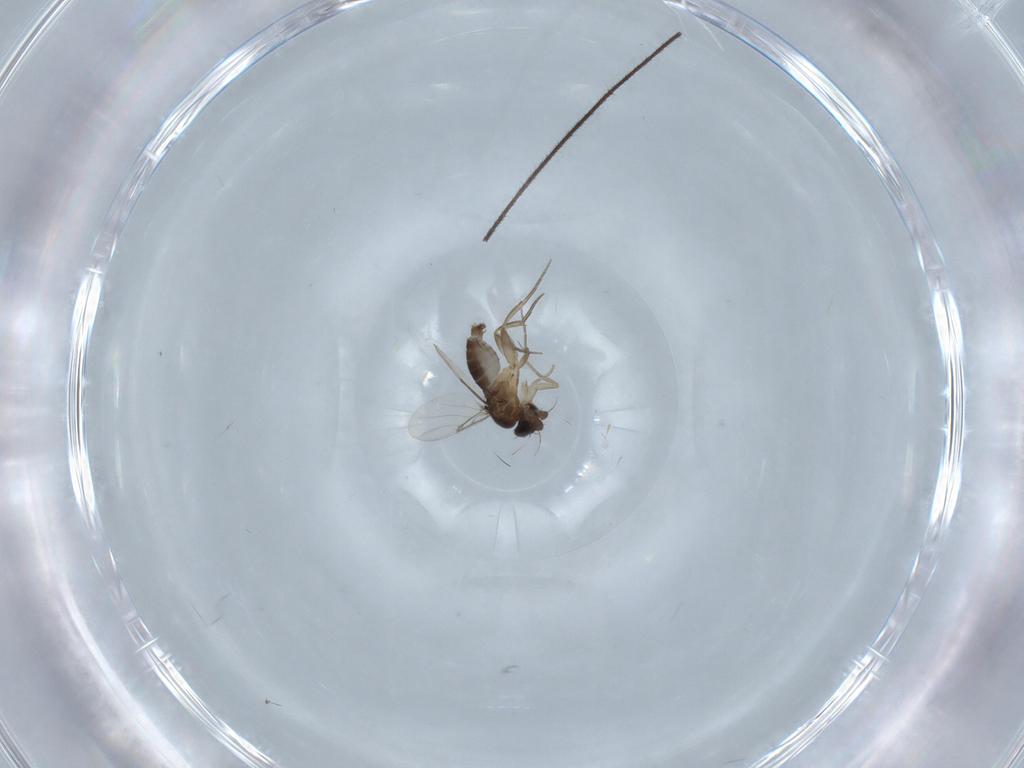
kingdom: Animalia
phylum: Arthropoda
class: Insecta
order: Diptera
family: Chironomidae
